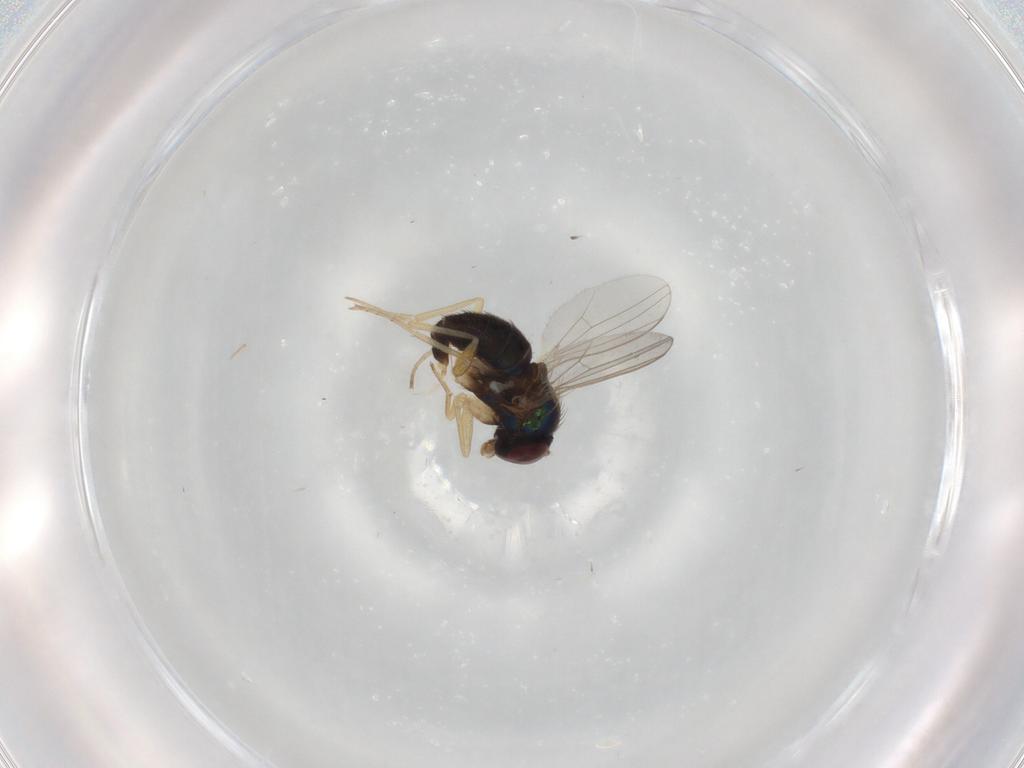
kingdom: Animalia
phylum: Arthropoda
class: Insecta
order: Diptera
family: Dolichopodidae
